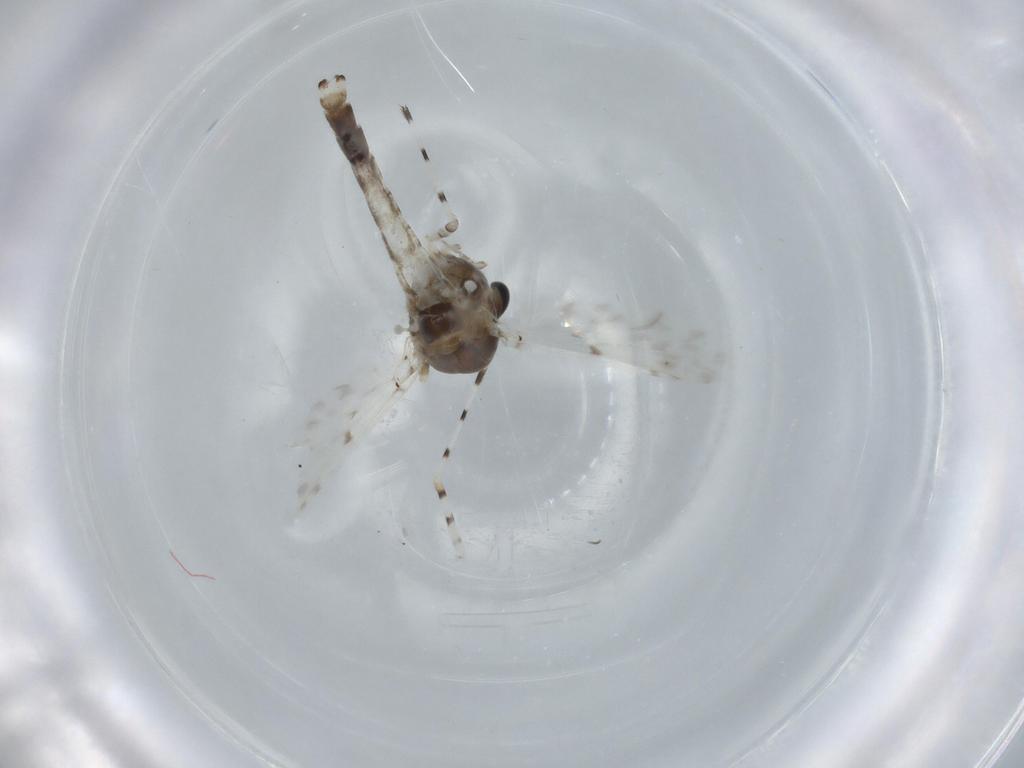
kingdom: Animalia
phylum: Arthropoda
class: Insecta
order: Diptera
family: Chironomidae
